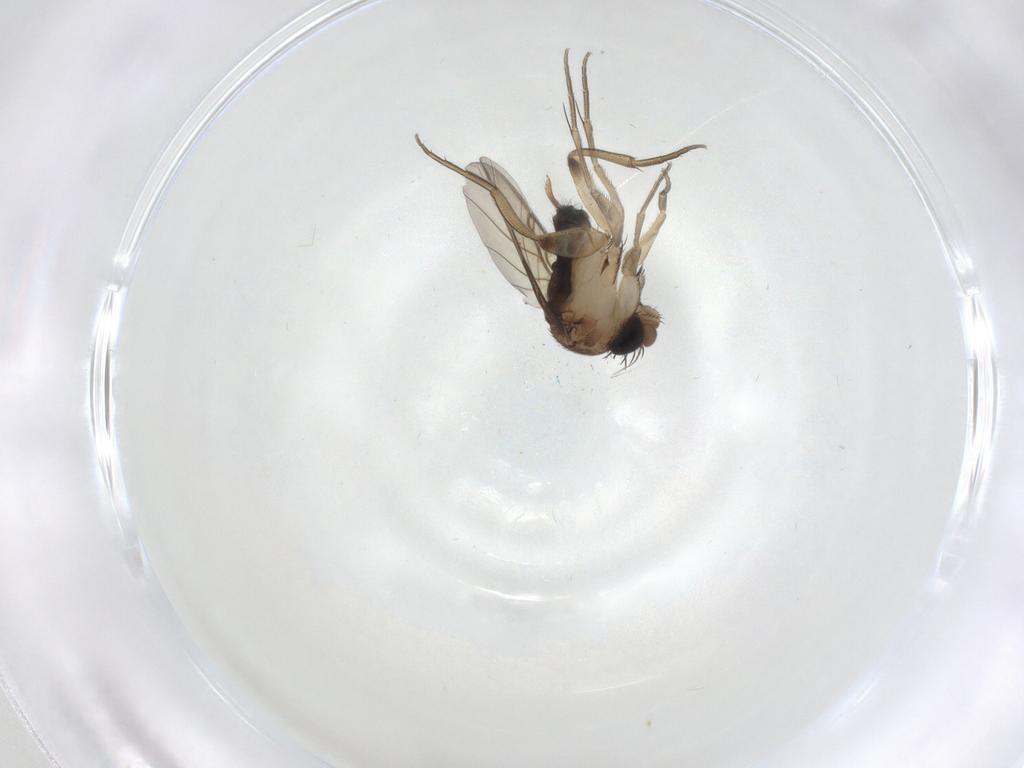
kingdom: Animalia
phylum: Arthropoda
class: Insecta
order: Diptera
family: Phoridae
